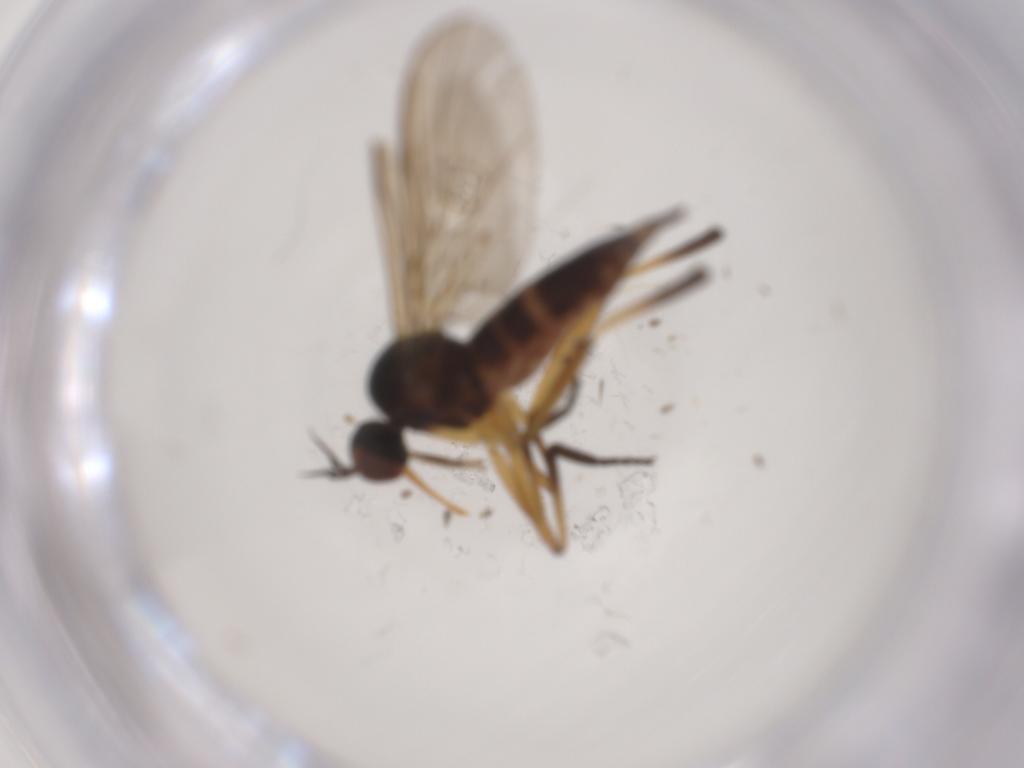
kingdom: Animalia
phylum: Arthropoda
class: Insecta
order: Diptera
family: Empididae
